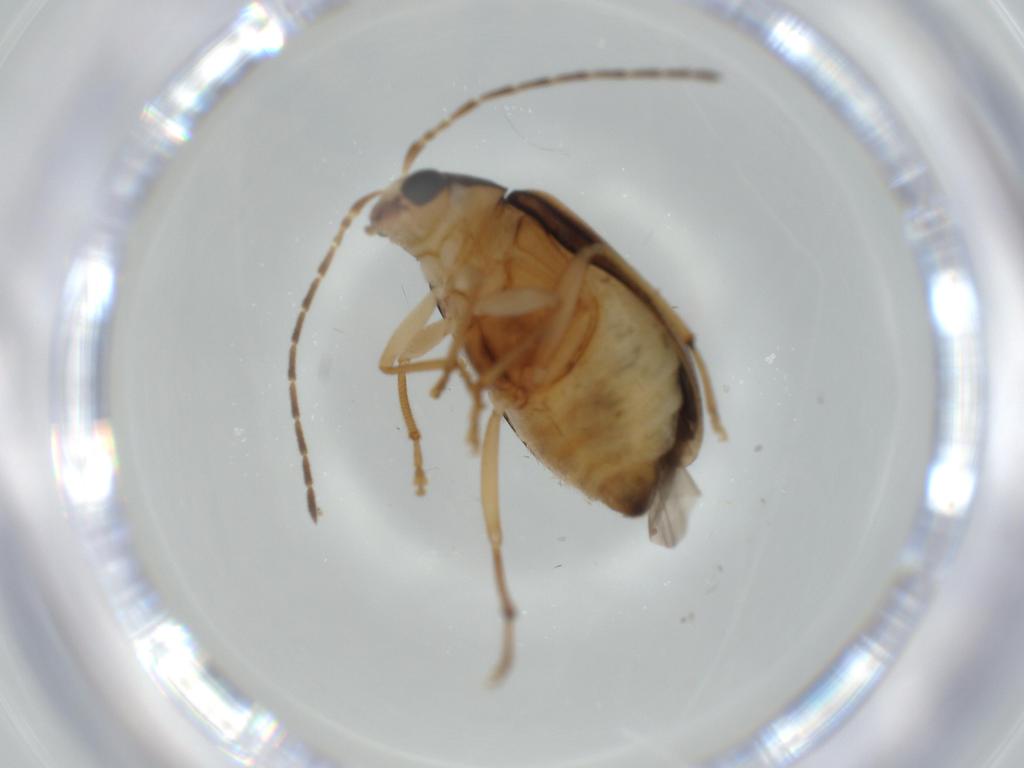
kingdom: Animalia
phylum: Arthropoda
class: Insecta
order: Coleoptera
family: Chrysomelidae
